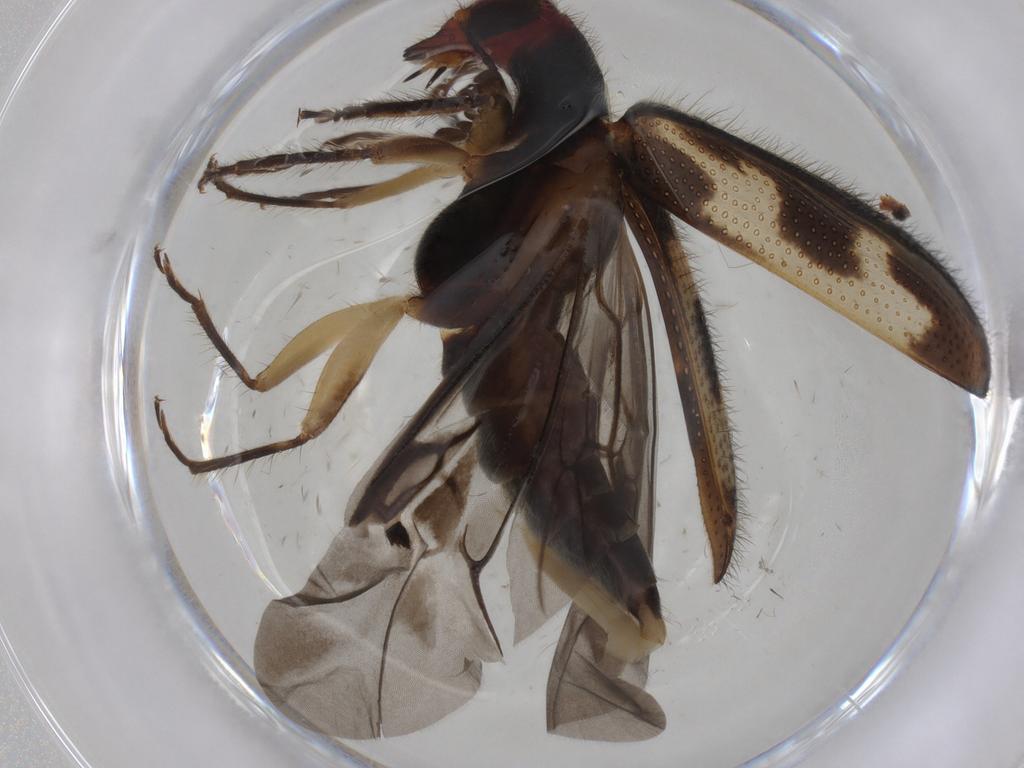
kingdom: Animalia
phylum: Arthropoda
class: Insecta
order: Coleoptera
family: Cleridae
